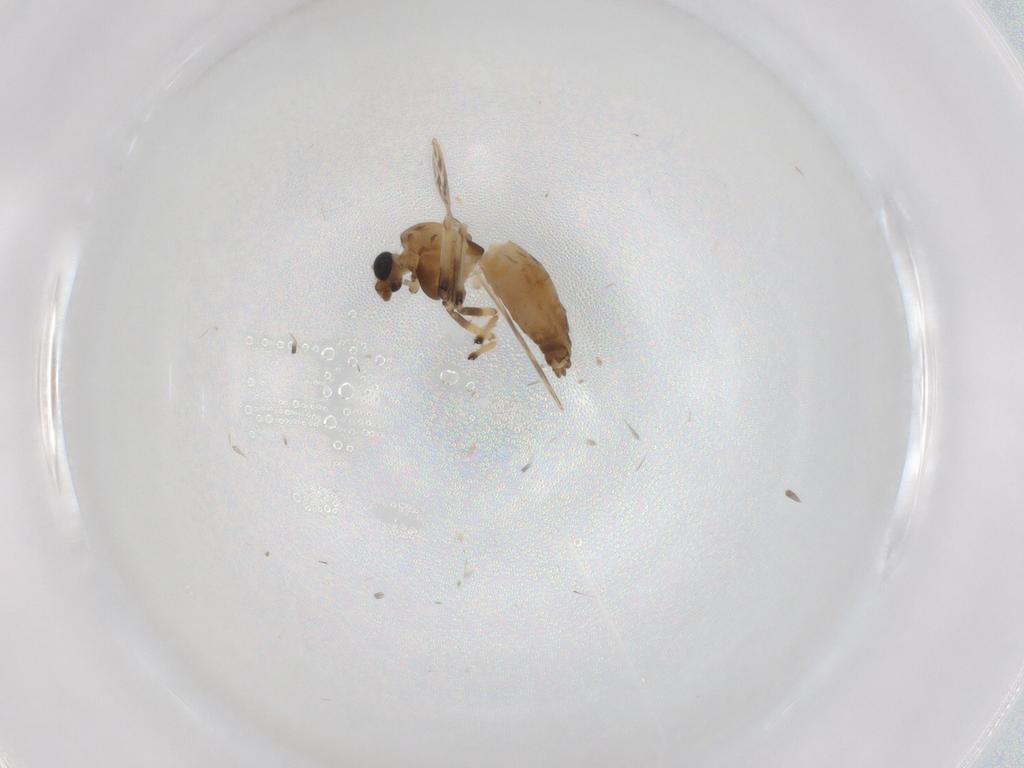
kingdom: Animalia
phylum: Arthropoda
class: Insecta
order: Diptera
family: Chironomidae
